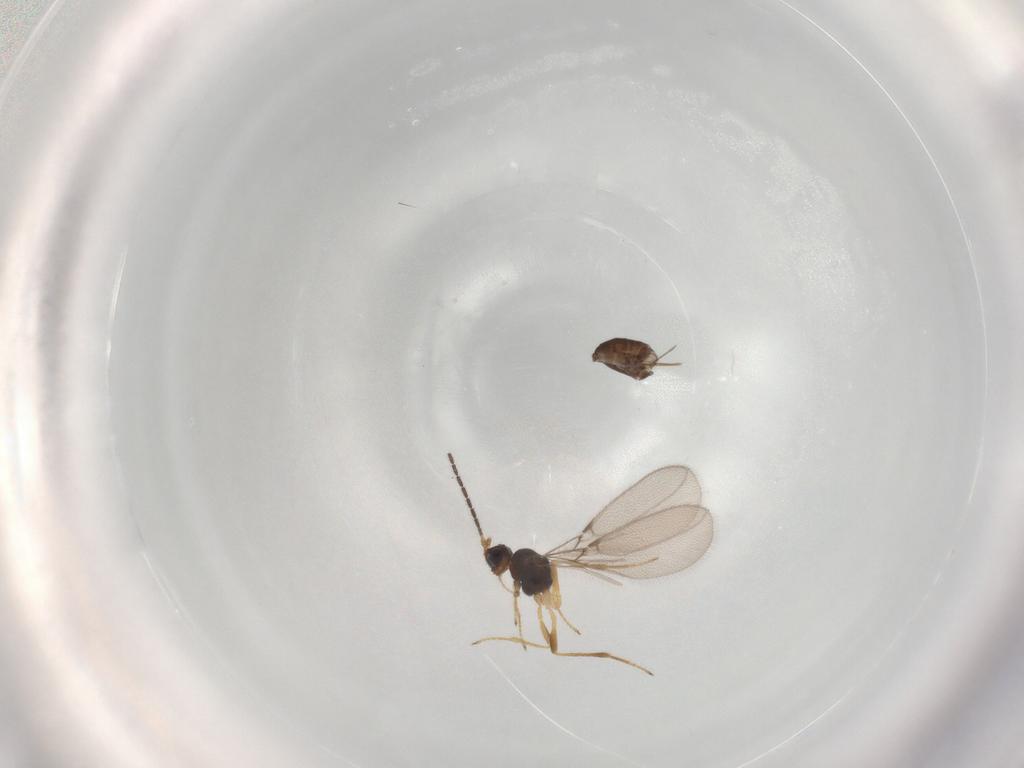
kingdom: Animalia
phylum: Arthropoda
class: Insecta
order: Hymenoptera
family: Braconidae
